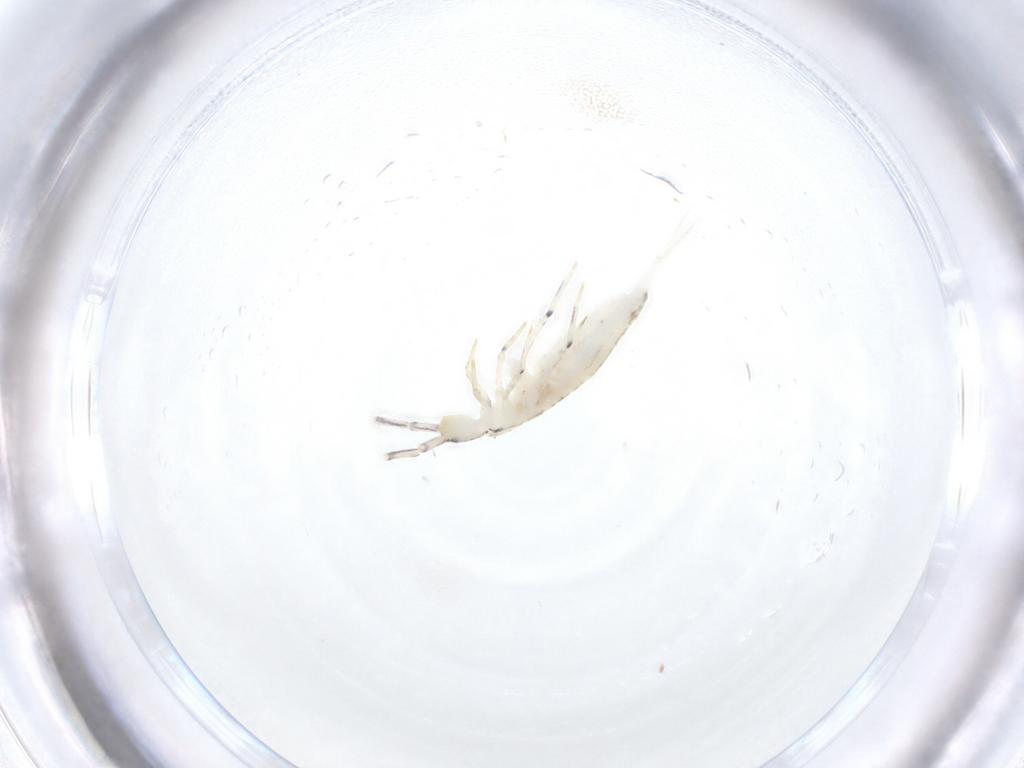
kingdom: Animalia
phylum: Arthropoda
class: Collembola
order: Entomobryomorpha
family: Entomobryidae
